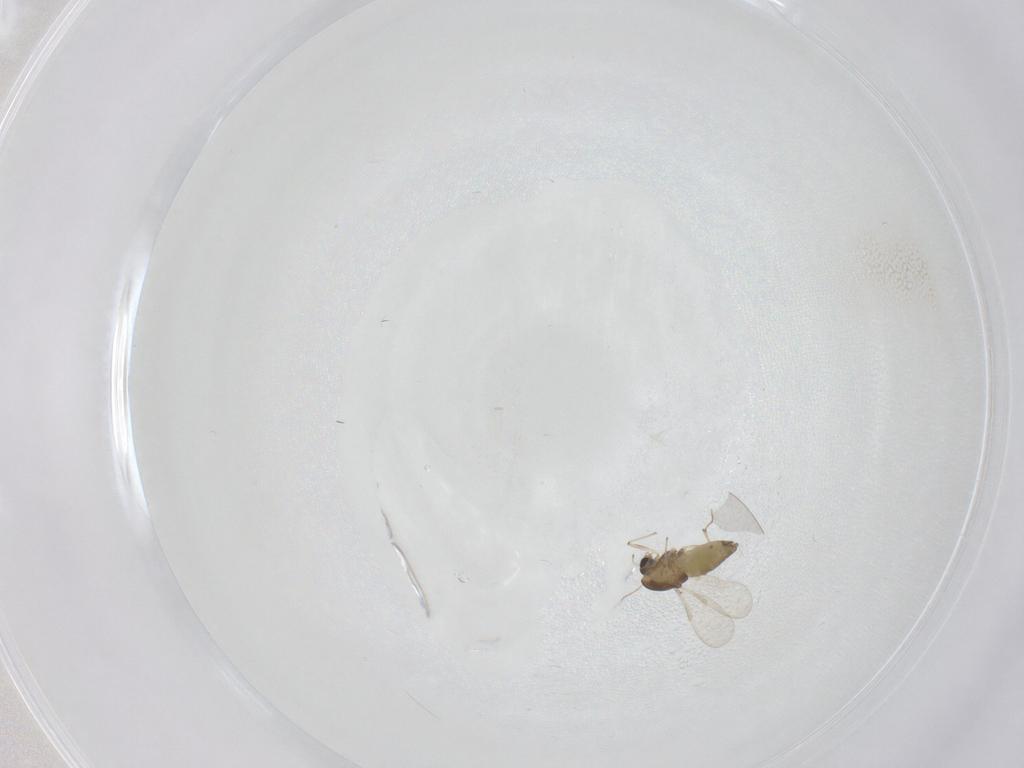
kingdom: Animalia
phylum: Arthropoda
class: Insecta
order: Diptera
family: Chironomidae
